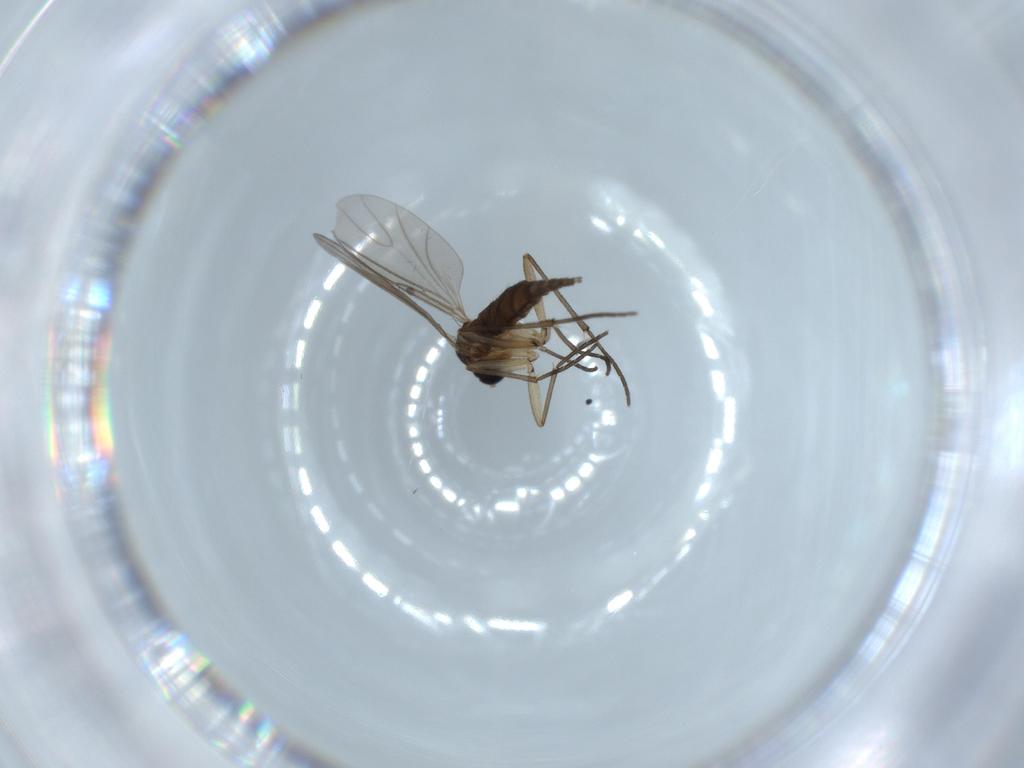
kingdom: Animalia
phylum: Arthropoda
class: Insecta
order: Diptera
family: Sciaridae
